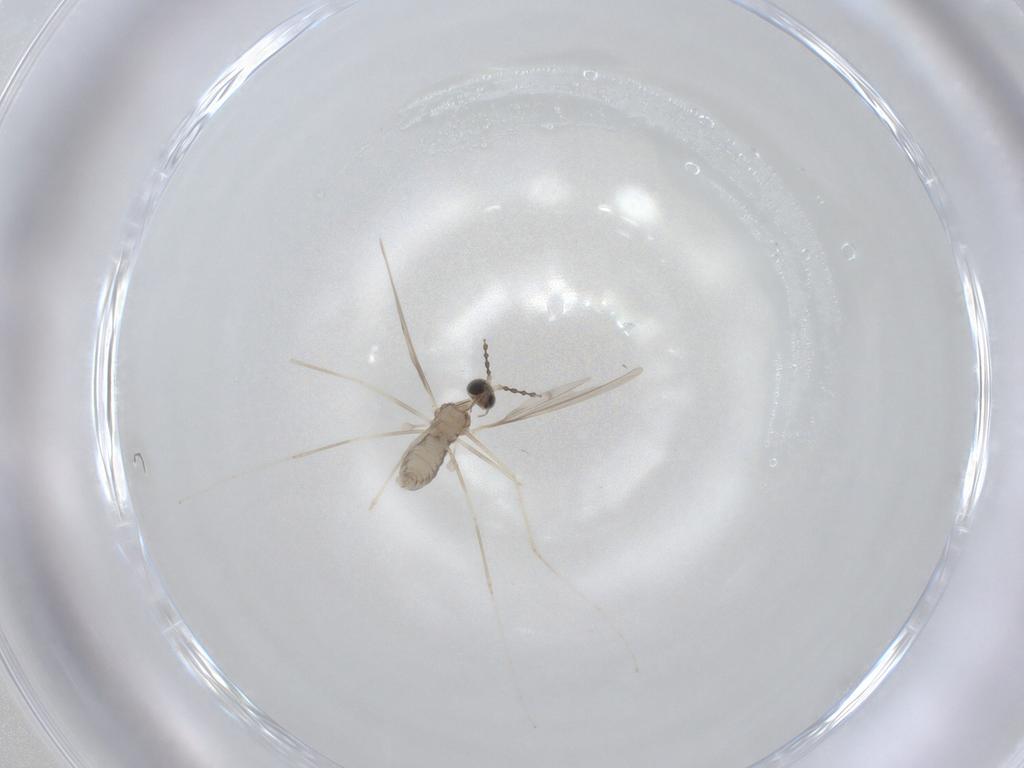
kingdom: Animalia
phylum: Arthropoda
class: Insecta
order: Diptera
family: Cecidomyiidae
